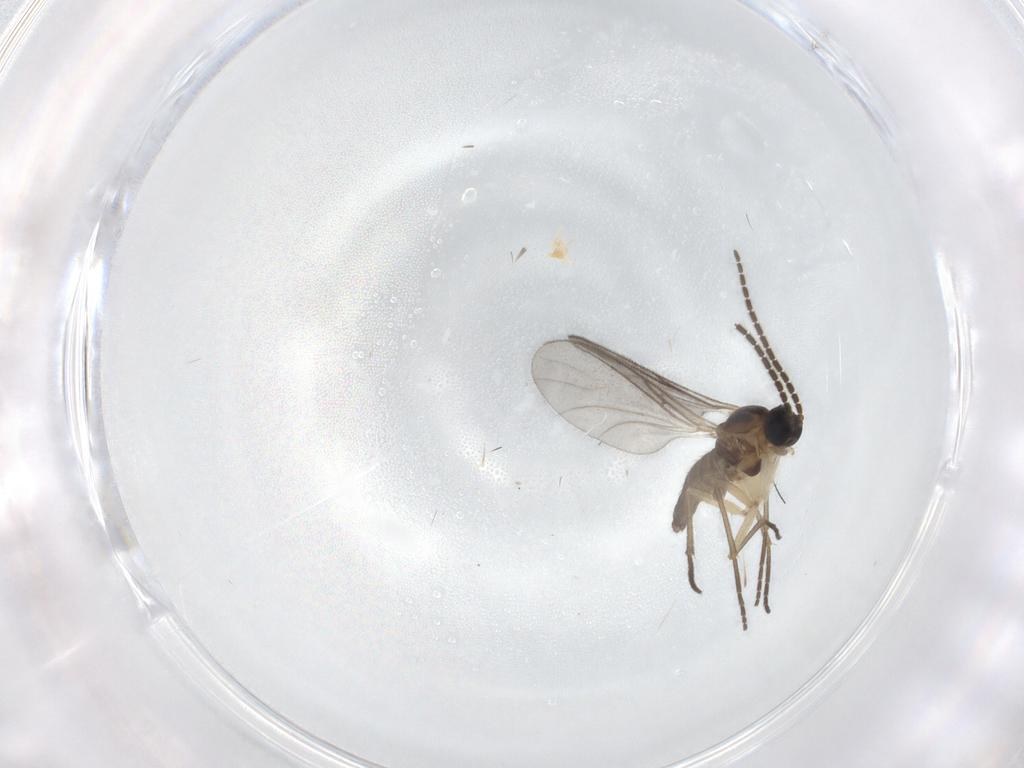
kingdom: Animalia
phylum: Arthropoda
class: Insecta
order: Diptera
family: Sciaridae
